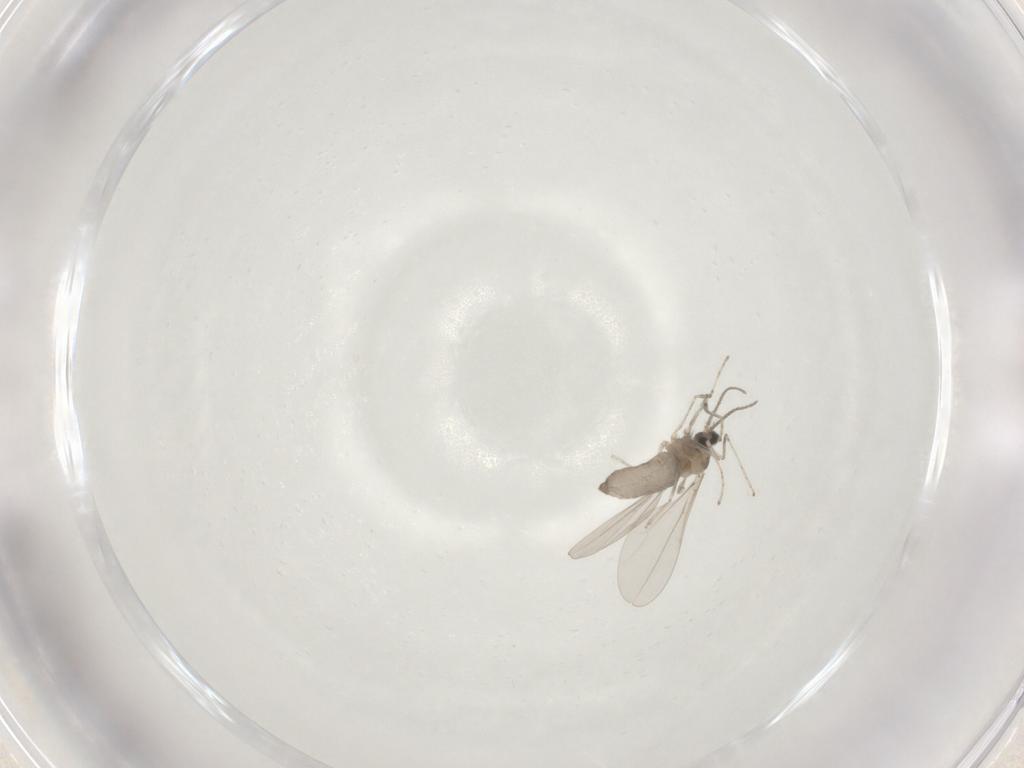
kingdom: Animalia
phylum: Arthropoda
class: Insecta
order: Diptera
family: Cecidomyiidae
